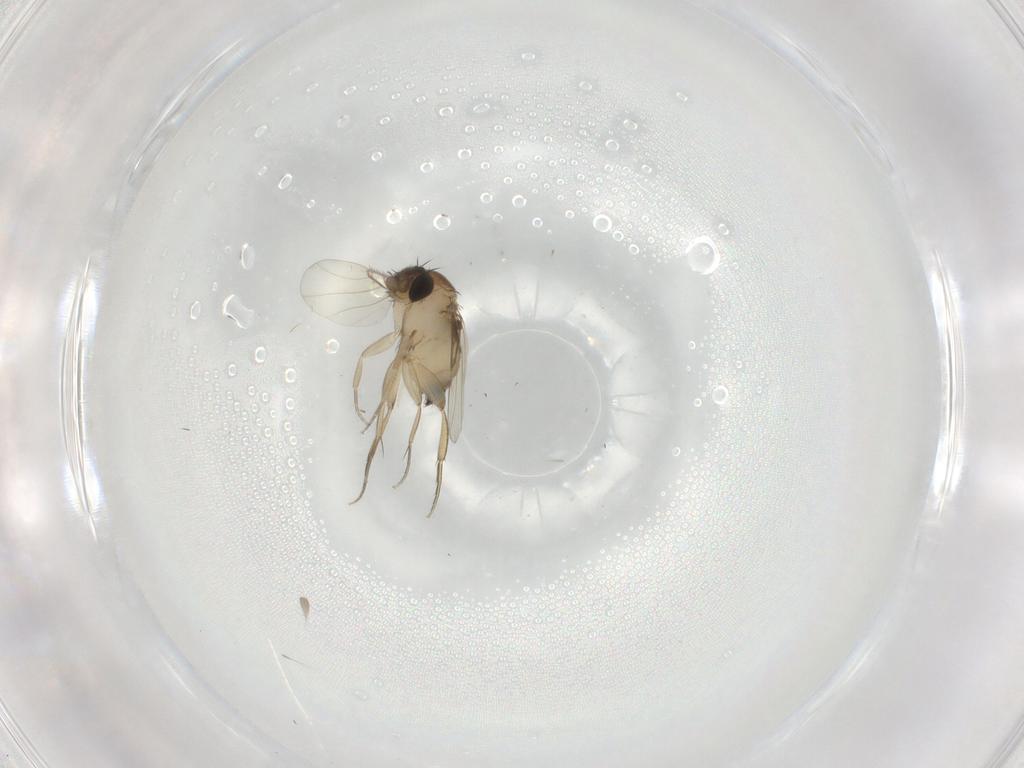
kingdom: Animalia
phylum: Arthropoda
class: Insecta
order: Diptera
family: Phoridae
